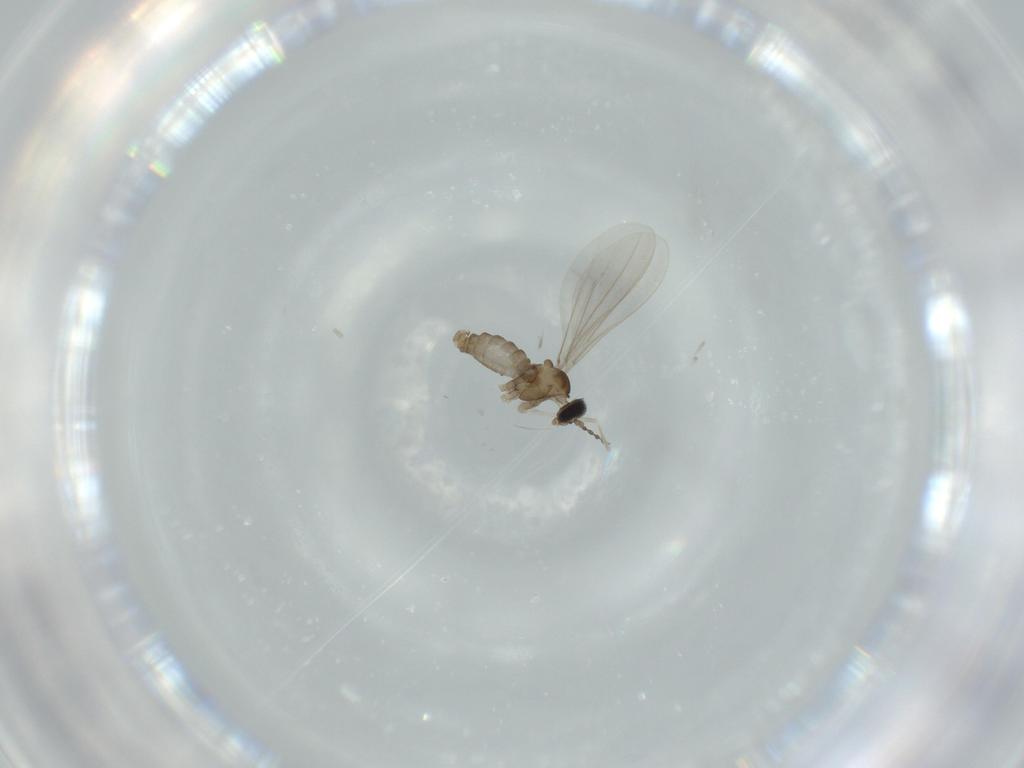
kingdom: Animalia
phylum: Arthropoda
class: Insecta
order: Diptera
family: Cecidomyiidae
